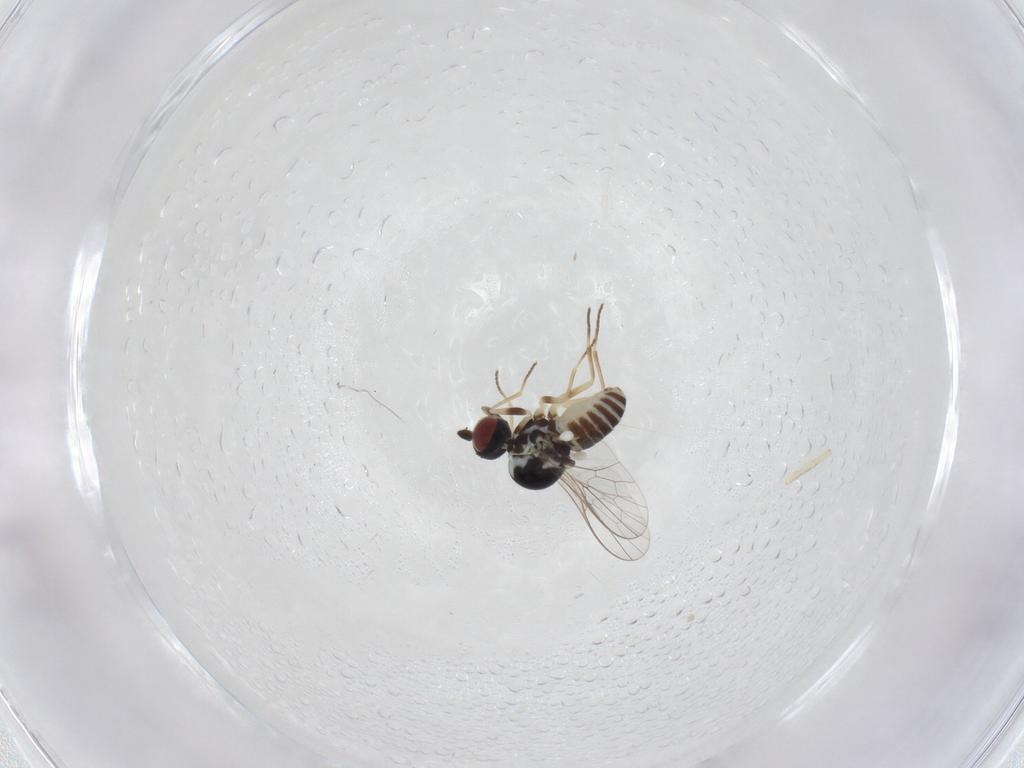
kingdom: Animalia
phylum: Arthropoda
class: Insecta
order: Diptera
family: Bombyliidae
